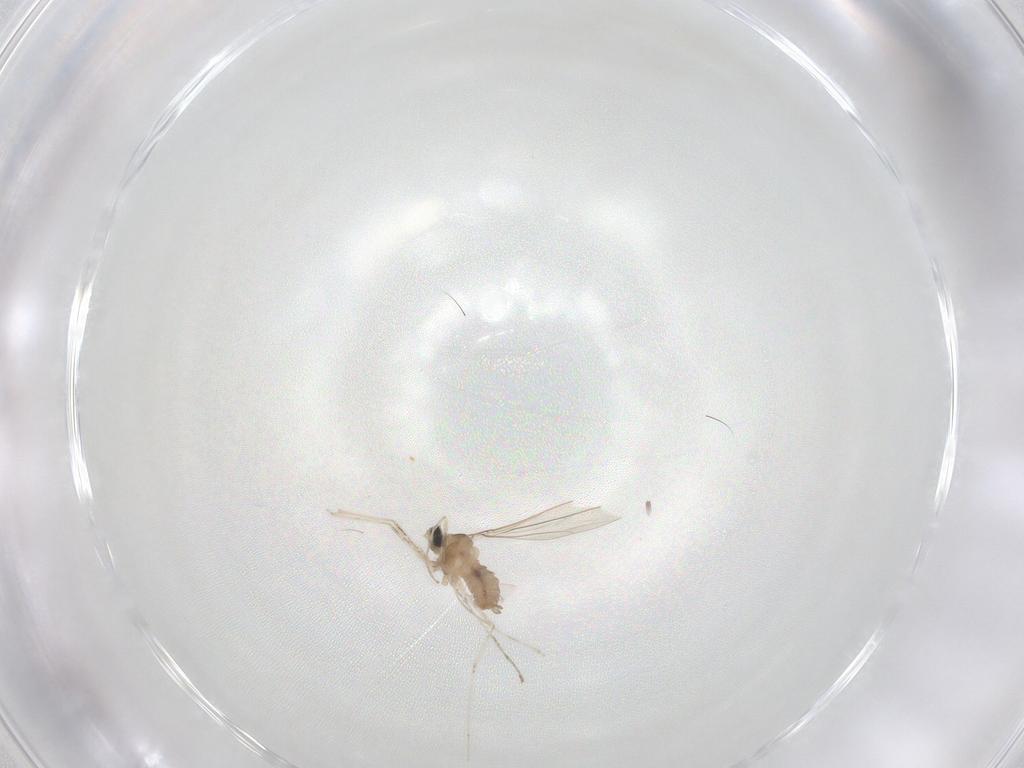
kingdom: Animalia
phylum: Arthropoda
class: Insecta
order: Diptera
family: Cecidomyiidae
